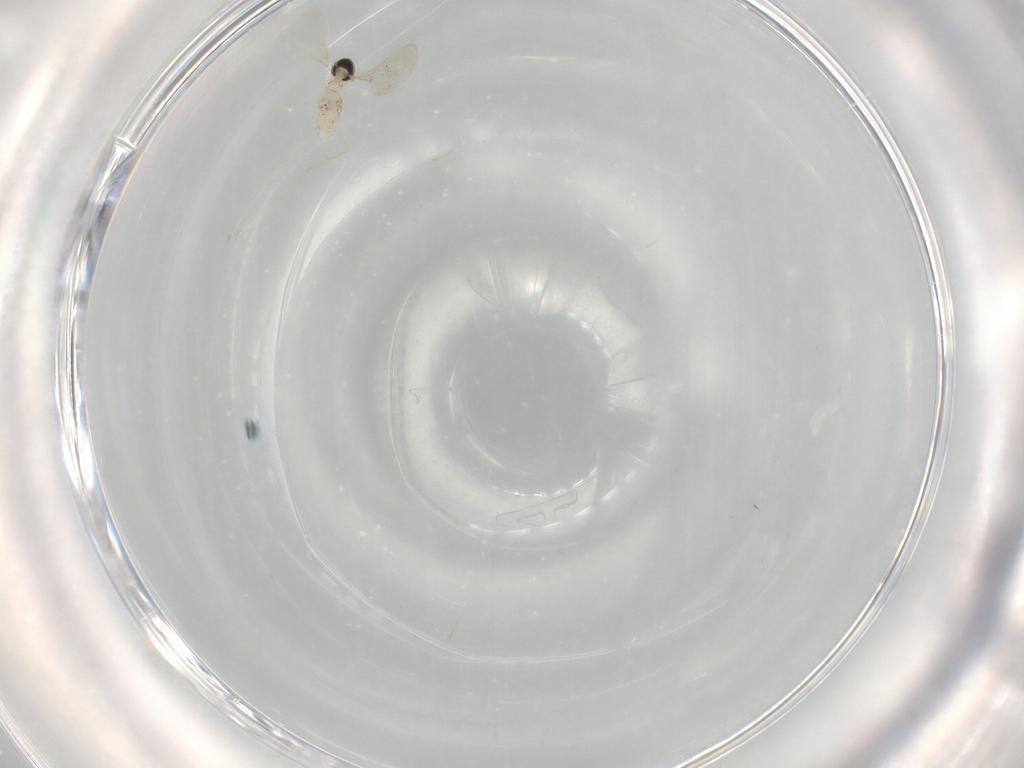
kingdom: Animalia
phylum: Arthropoda
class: Insecta
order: Diptera
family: Cecidomyiidae
